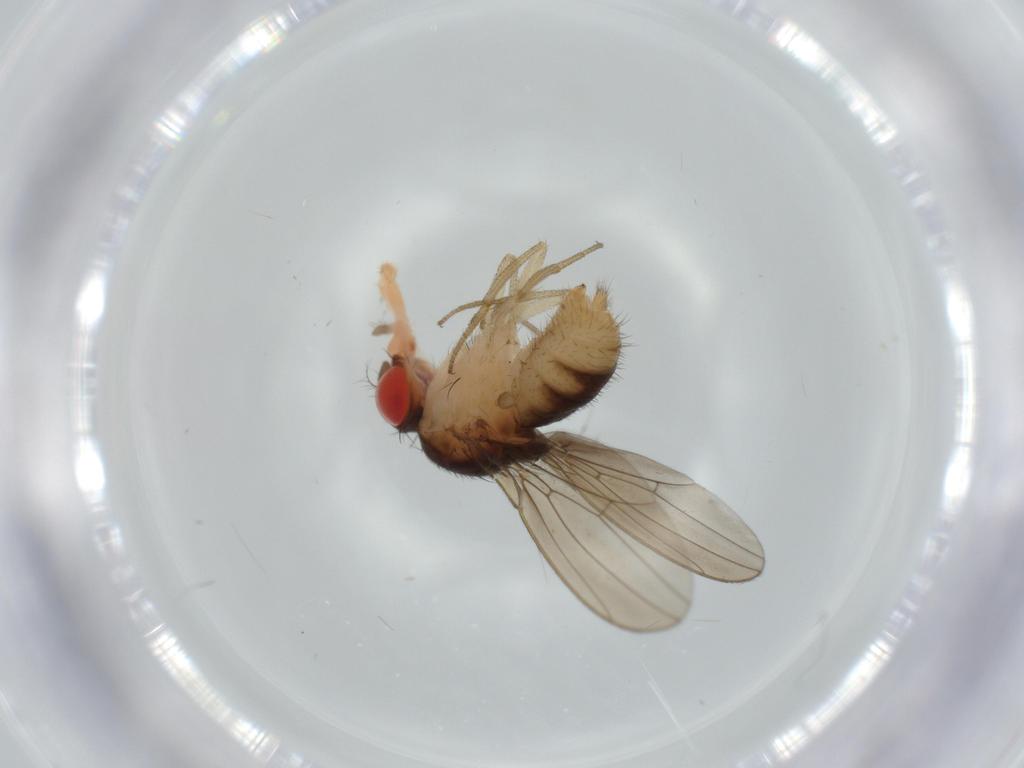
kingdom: Animalia
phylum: Arthropoda
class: Insecta
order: Diptera
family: Drosophilidae
